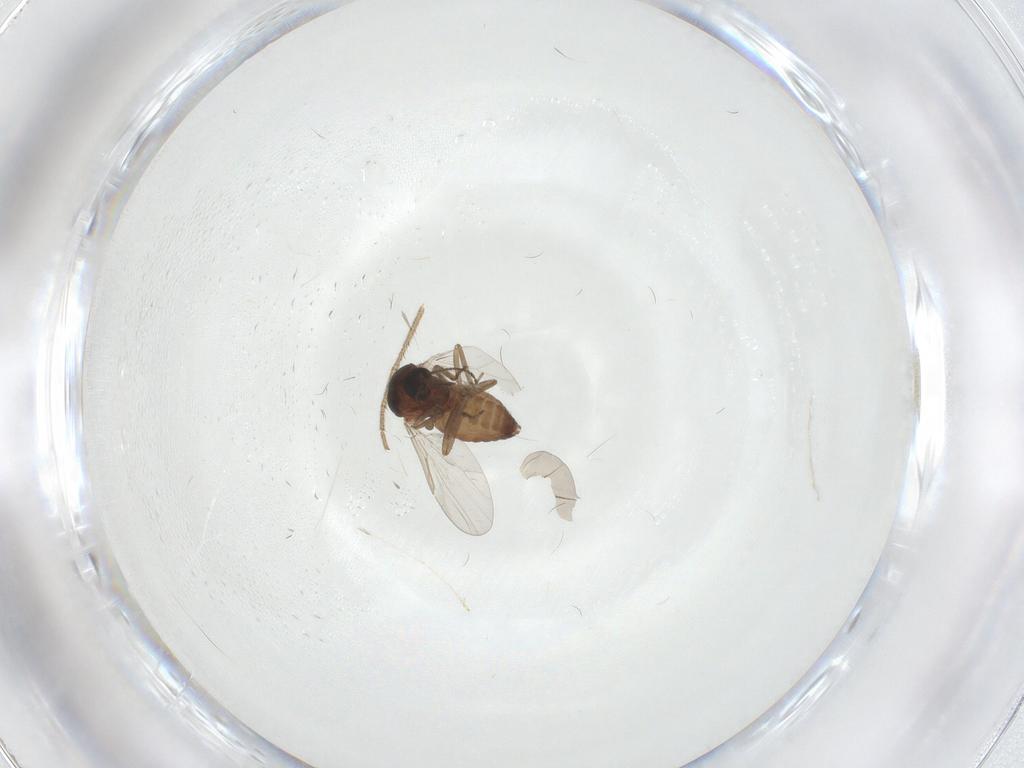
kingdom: Animalia
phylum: Arthropoda
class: Insecta
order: Diptera
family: Ceratopogonidae
